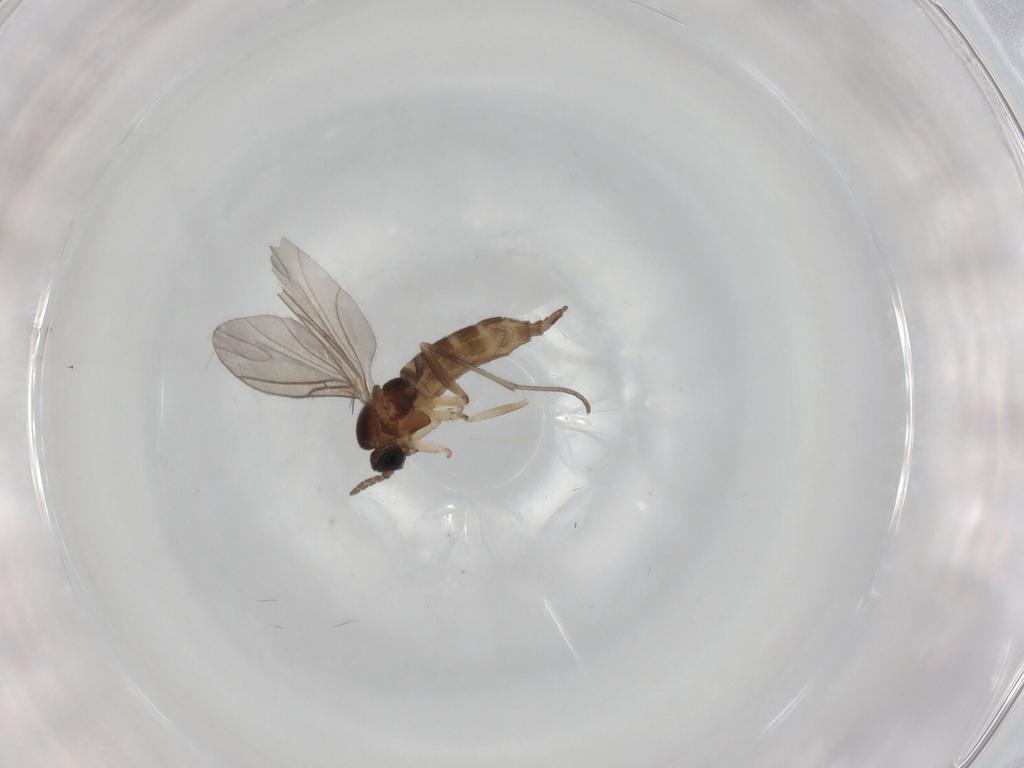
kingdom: Animalia
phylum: Arthropoda
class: Insecta
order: Diptera
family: Sciaridae
